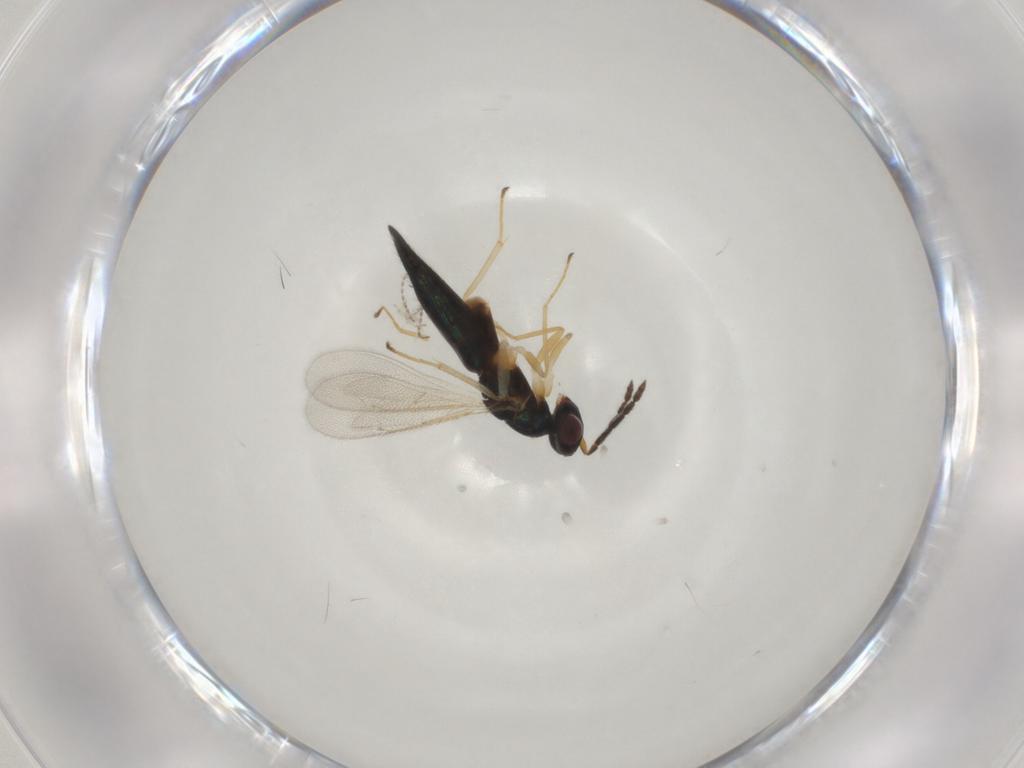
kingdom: Animalia
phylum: Arthropoda
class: Insecta
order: Hymenoptera
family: Eulophidae
